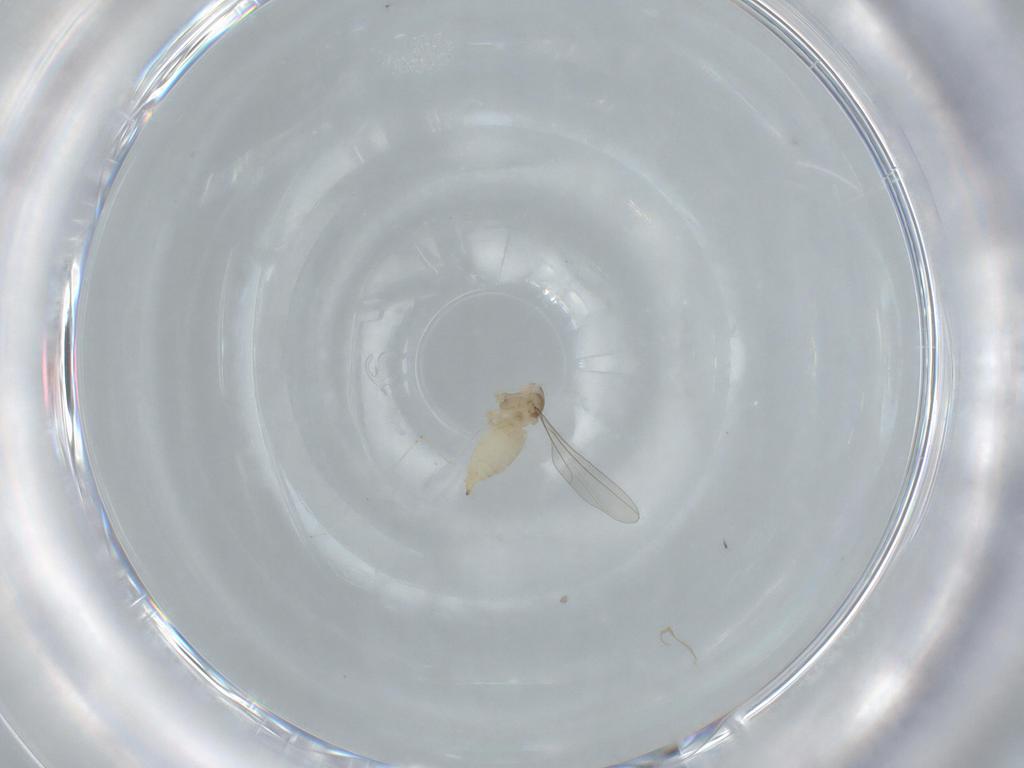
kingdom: Animalia
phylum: Arthropoda
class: Insecta
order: Diptera
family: Cecidomyiidae
